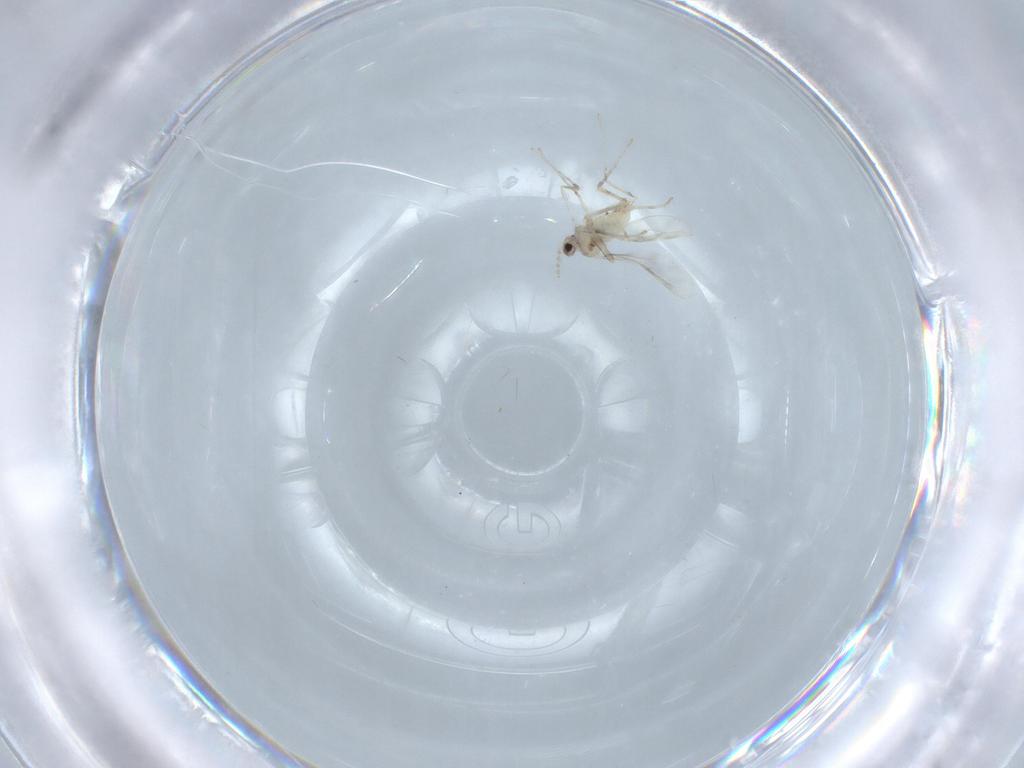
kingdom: Animalia
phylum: Arthropoda
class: Insecta
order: Diptera
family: Cecidomyiidae
